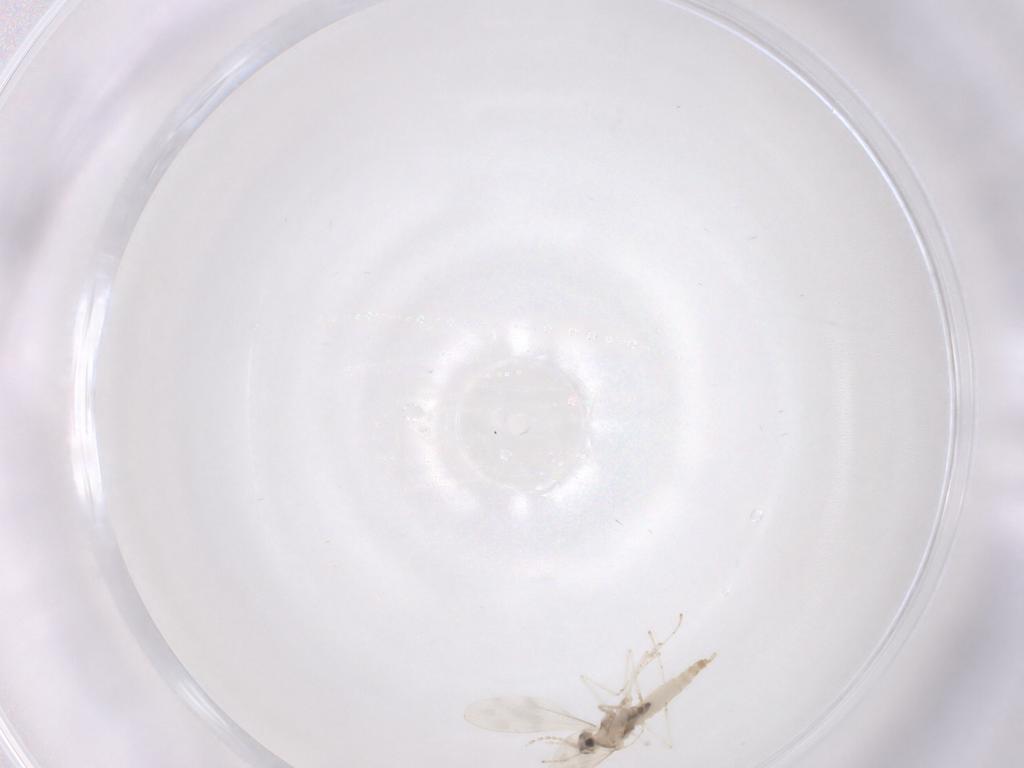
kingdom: Animalia
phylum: Arthropoda
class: Insecta
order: Diptera
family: Cecidomyiidae
